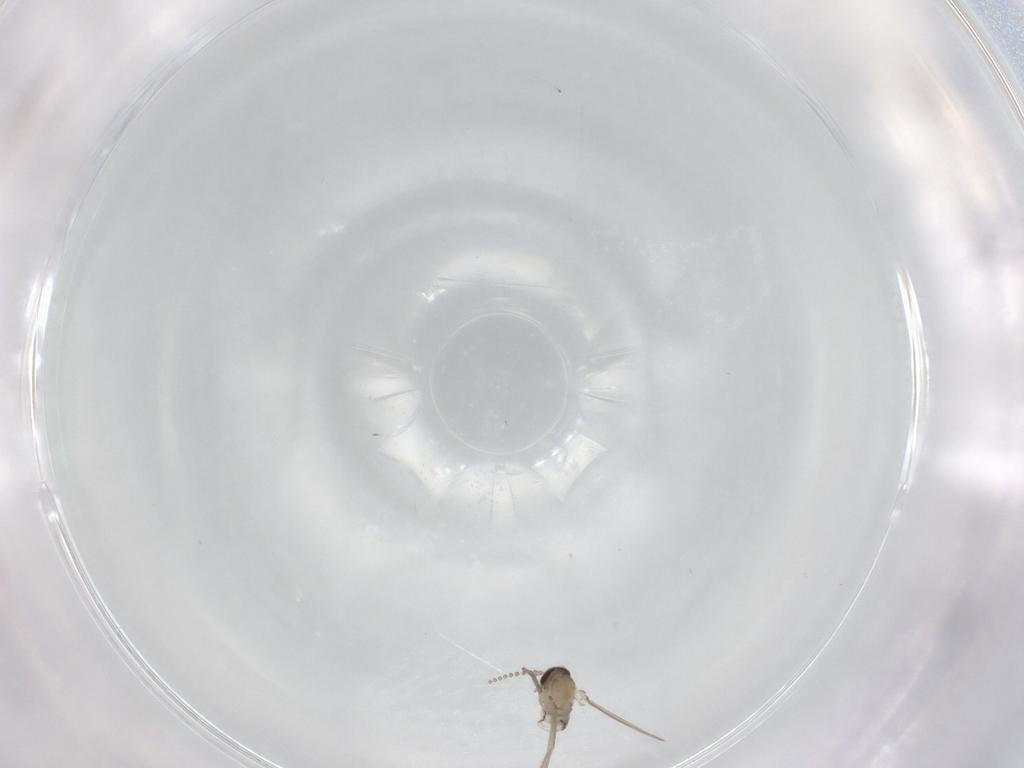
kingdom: Animalia
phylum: Arthropoda
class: Insecta
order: Diptera
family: Psychodidae
